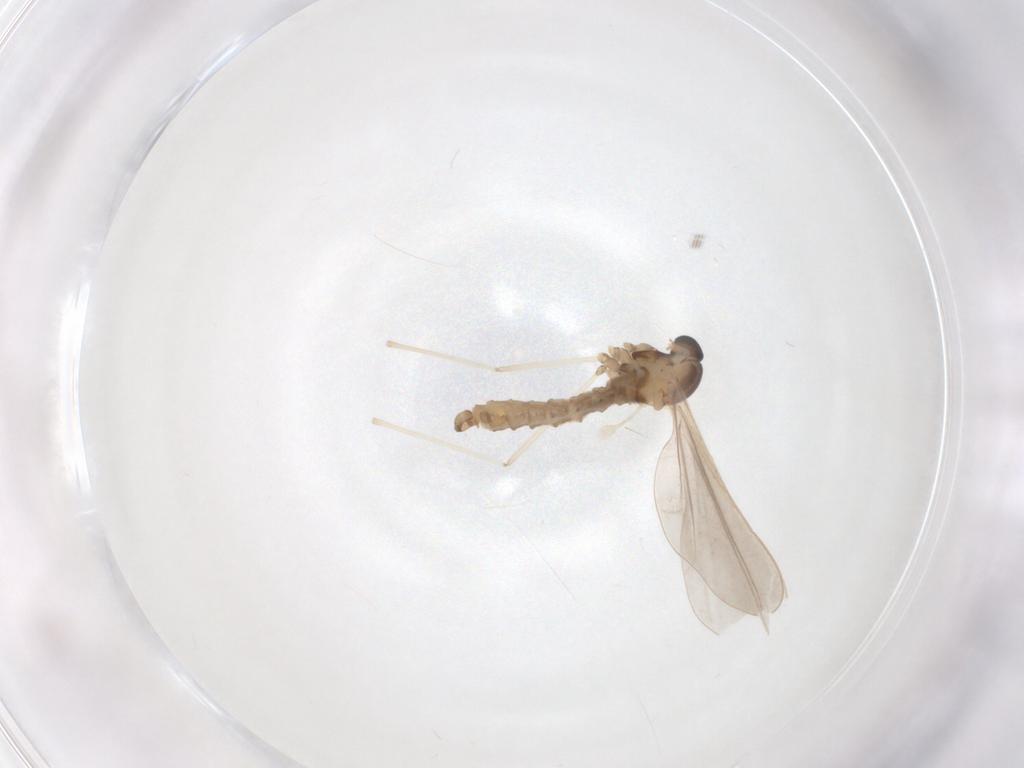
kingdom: Animalia
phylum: Arthropoda
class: Insecta
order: Diptera
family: Cecidomyiidae
